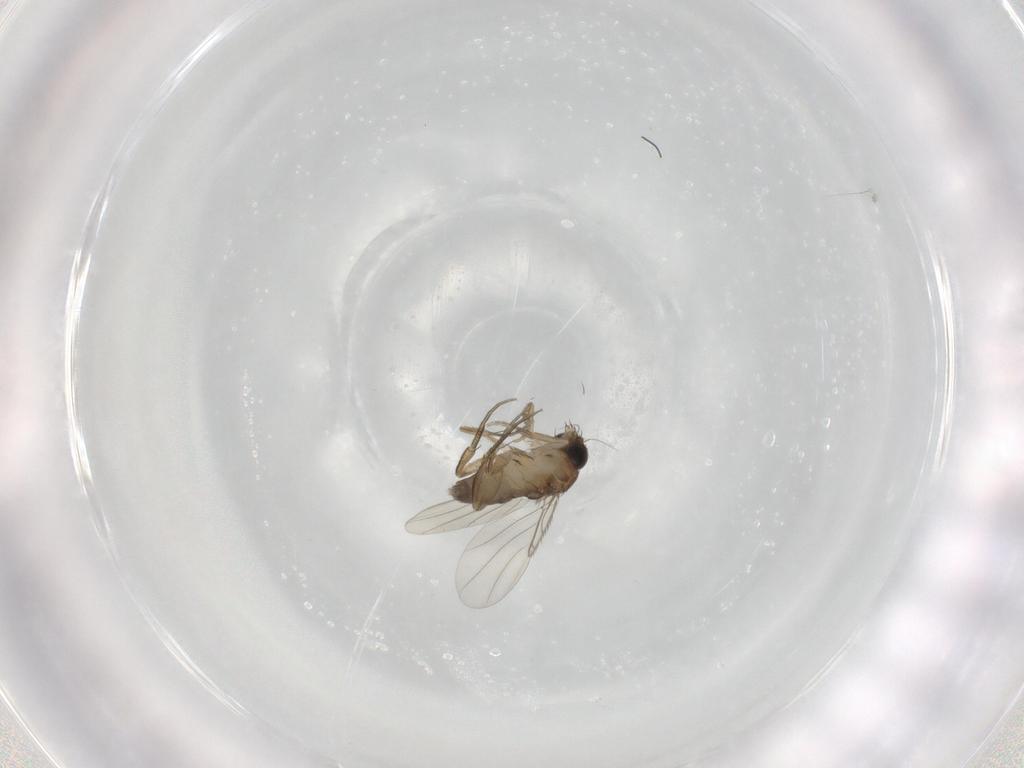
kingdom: Animalia
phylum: Arthropoda
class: Insecta
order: Diptera
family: Phoridae
